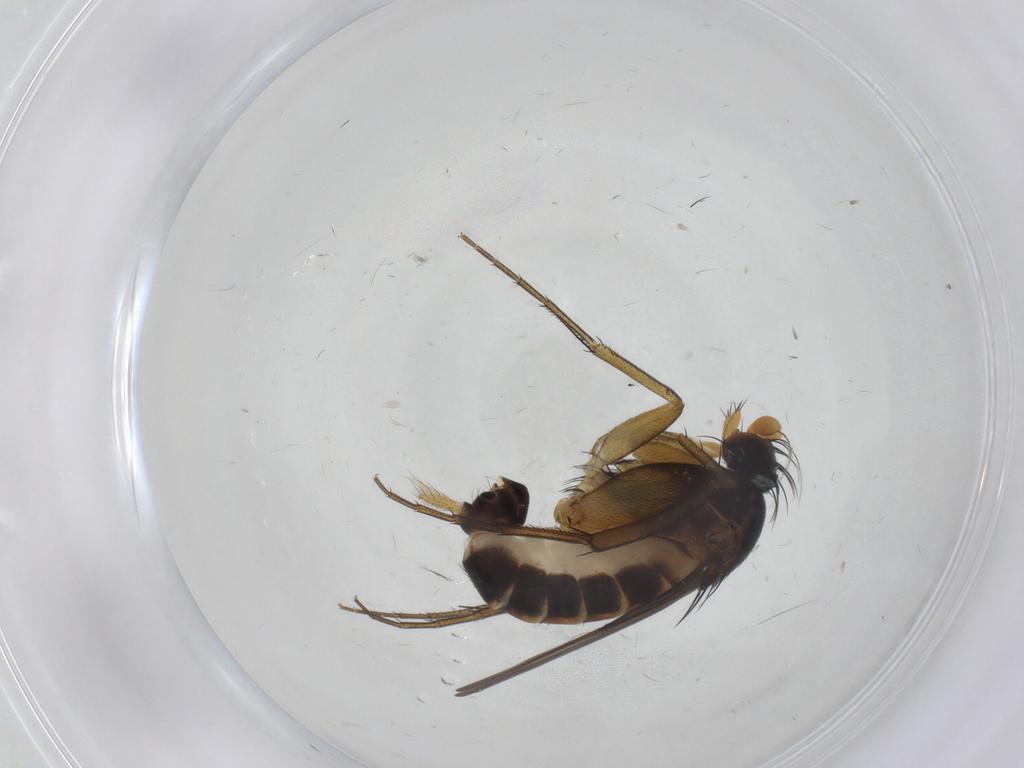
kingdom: Animalia
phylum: Arthropoda
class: Insecta
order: Diptera
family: Phoridae
